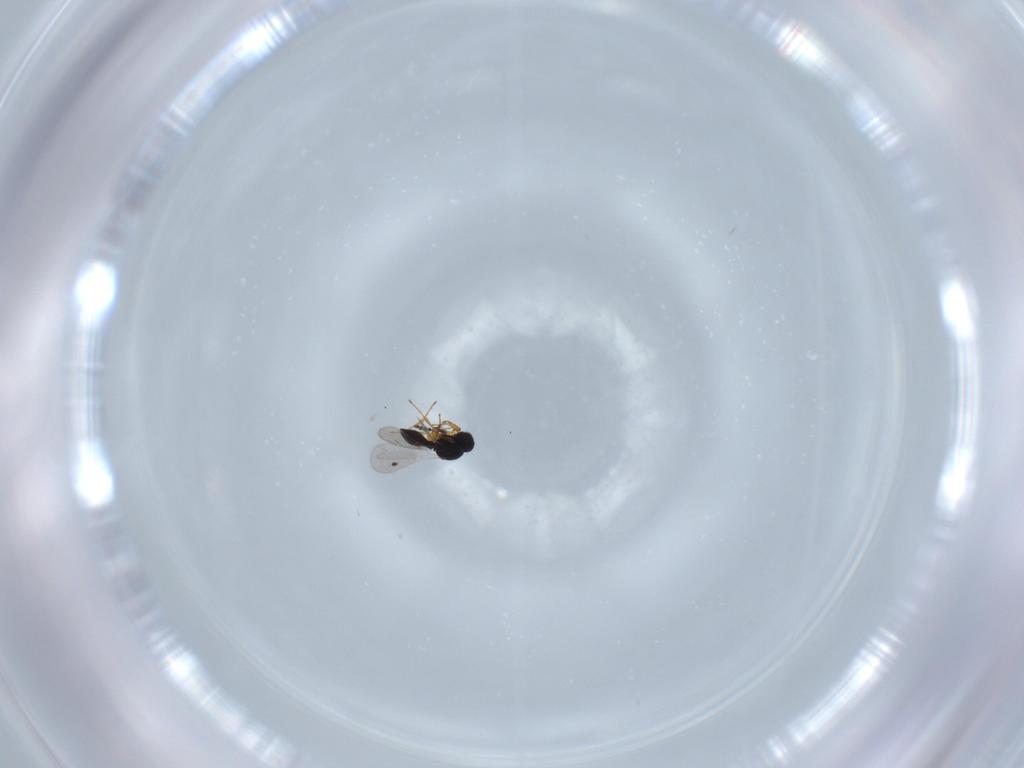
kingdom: Animalia
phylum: Arthropoda
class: Insecta
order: Hymenoptera
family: Platygastridae
